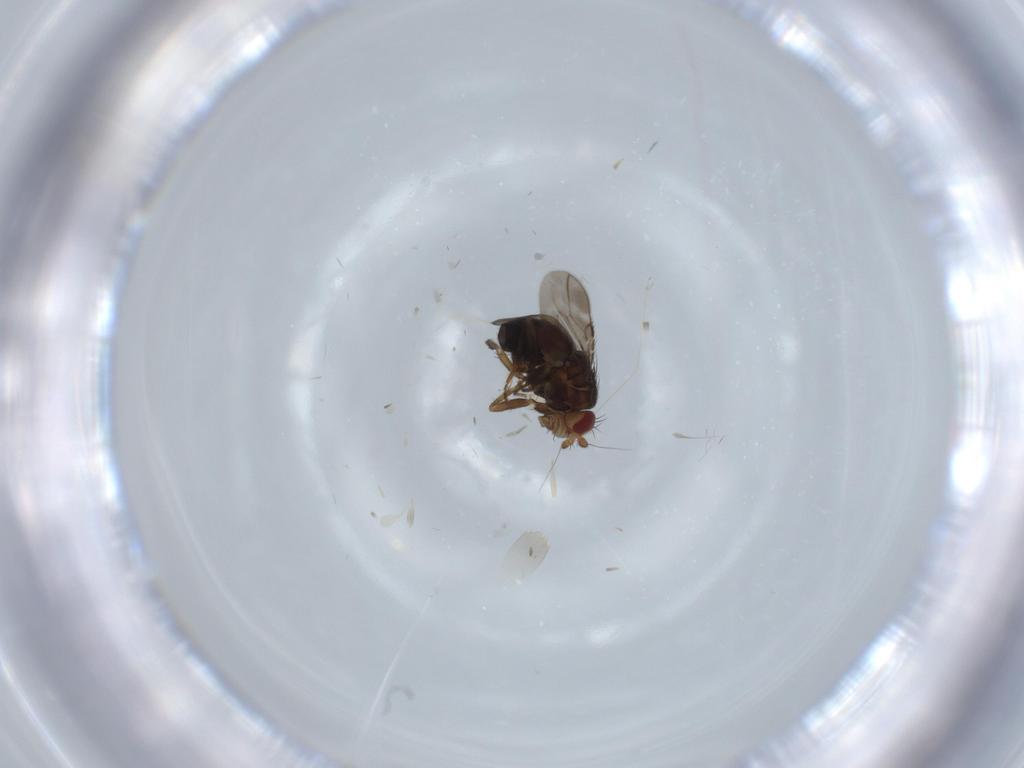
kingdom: Animalia
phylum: Arthropoda
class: Insecta
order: Diptera
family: Sphaeroceridae
